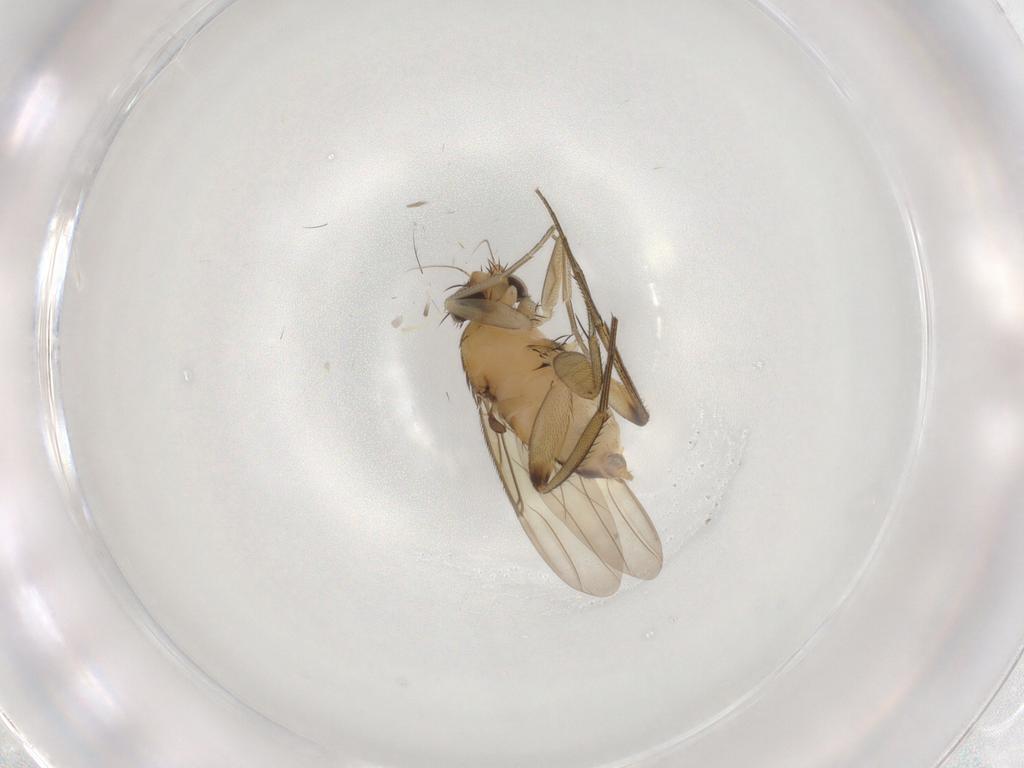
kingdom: Animalia
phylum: Arthropoda
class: Insecta
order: Diptera
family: Phoridae
